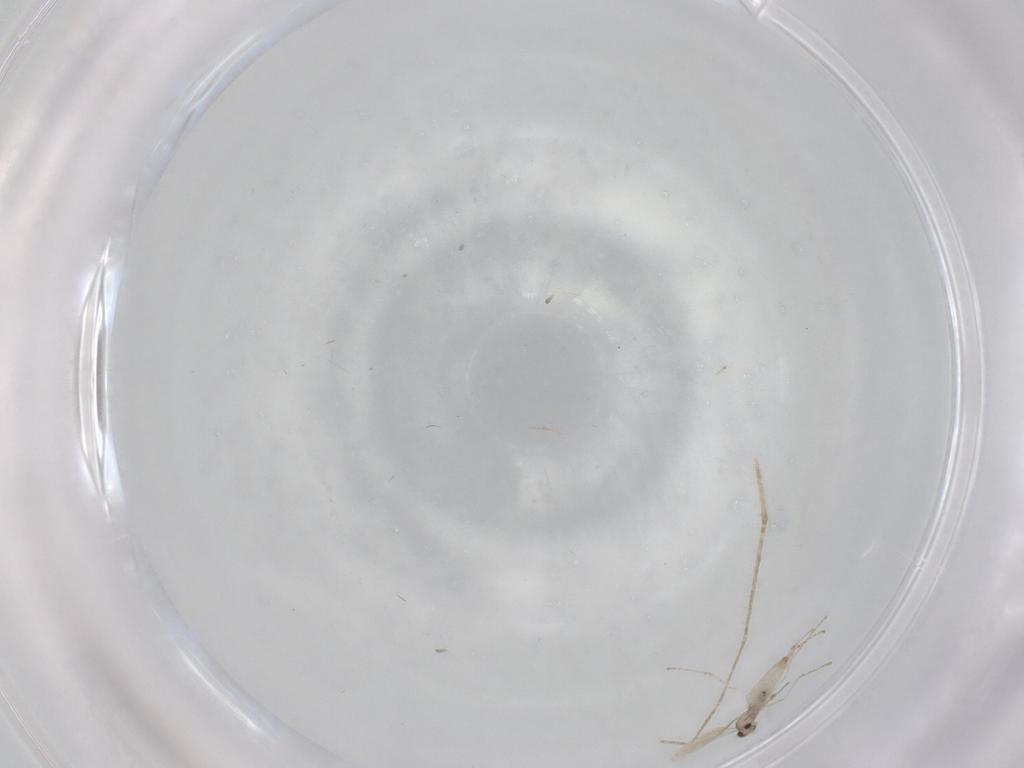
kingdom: Animalia
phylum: Arthropoda
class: Insecta
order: Diptera
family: Cecidomyiidae
